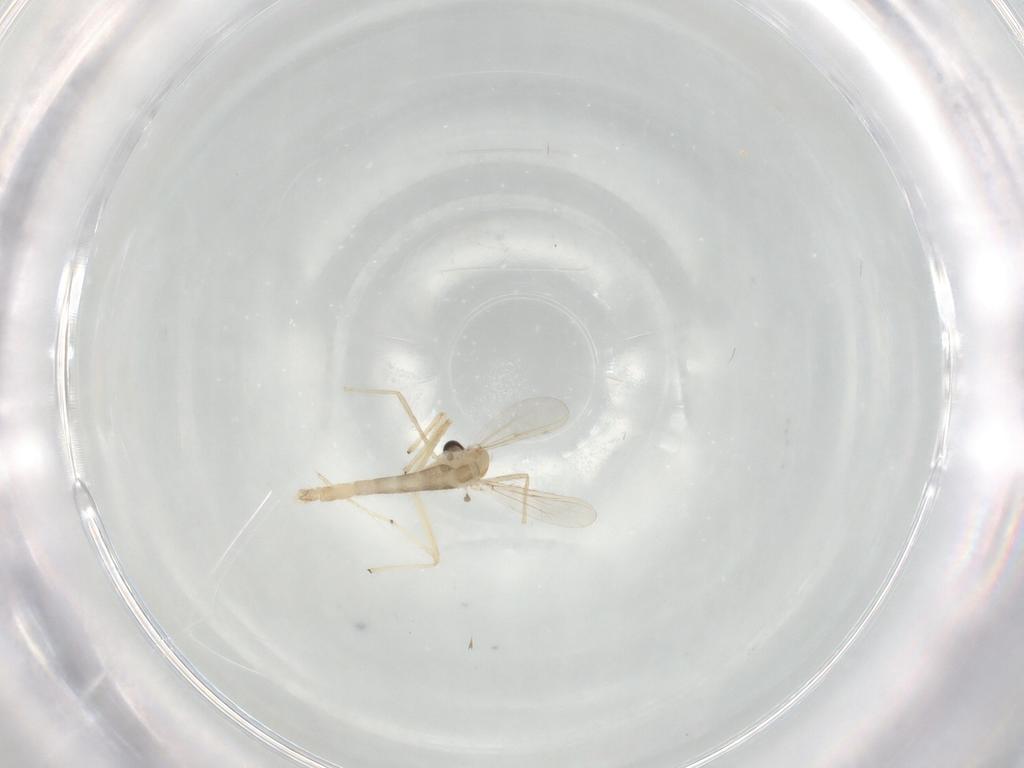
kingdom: Animalia
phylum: Arthropoda
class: Insecta
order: Diptera
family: Chironomidae
